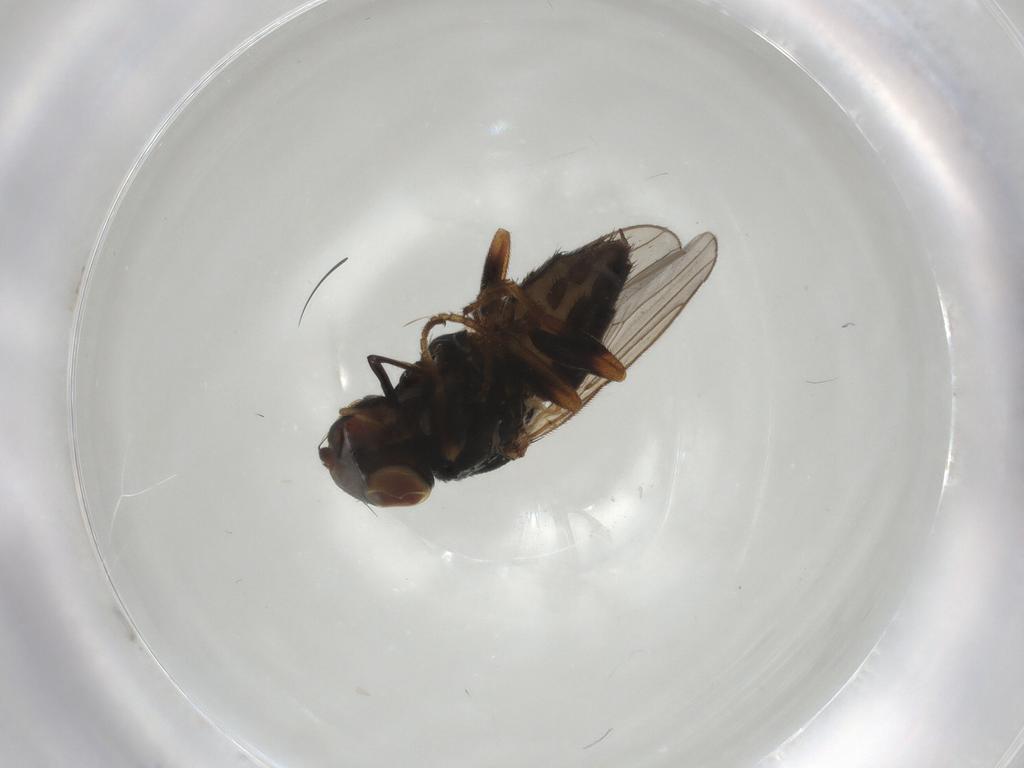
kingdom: Animalia
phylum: Arthropoda
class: Insecta
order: Diptera
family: Chloropidae
